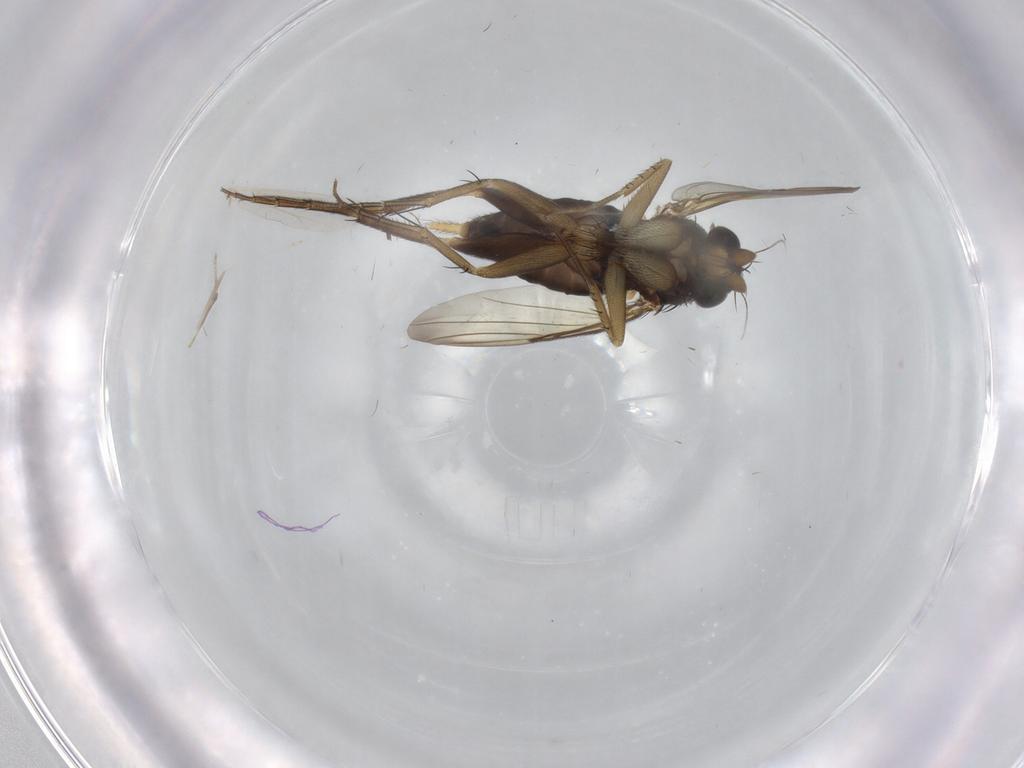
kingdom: Animalia
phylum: Arthropoda
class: Insecta
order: Diptera
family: Phoridae
